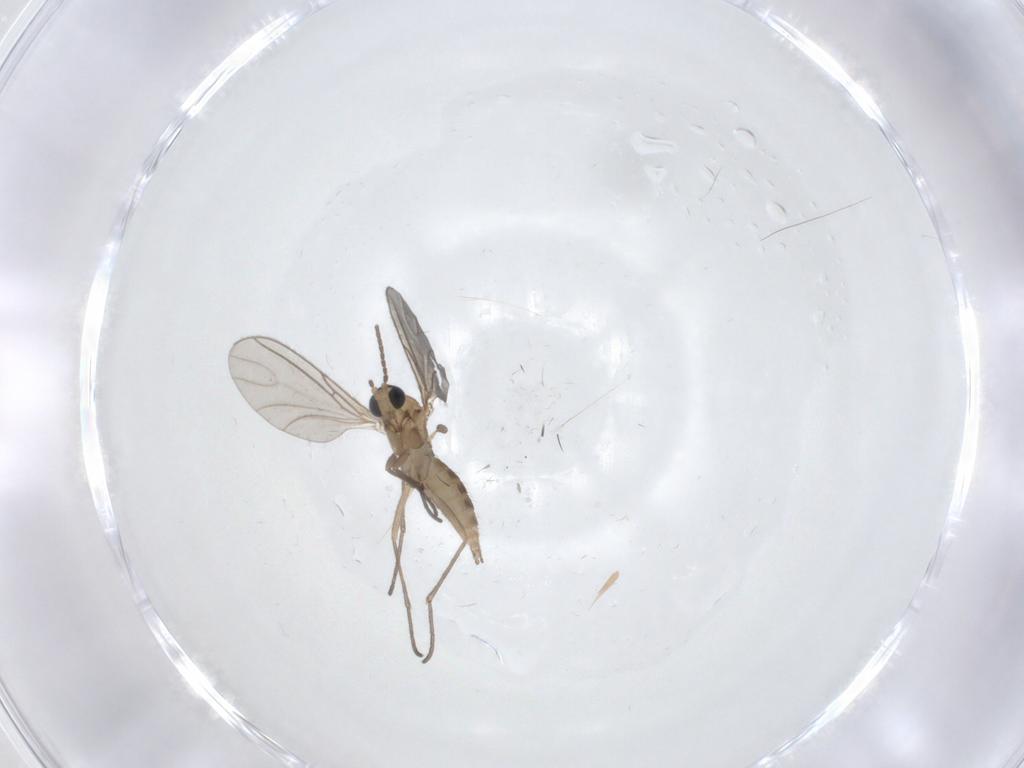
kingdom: Animalia
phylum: Arthropoda
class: Insecta
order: Diptera
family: Sciaridae
